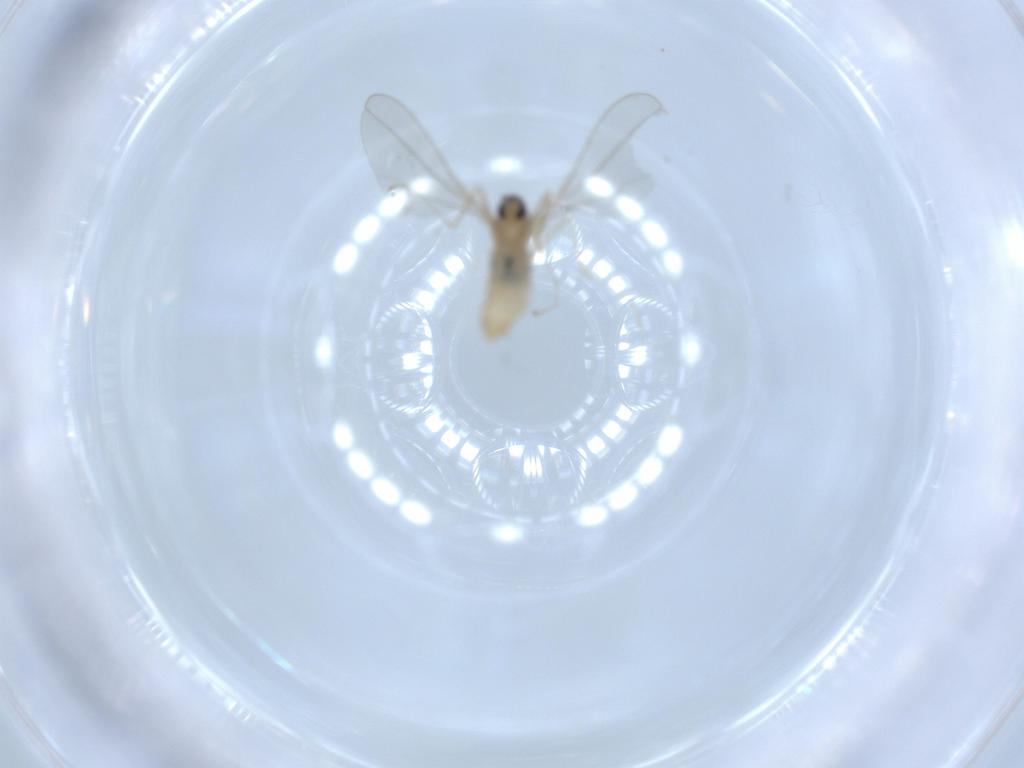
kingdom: Animalia
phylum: Arthropoda
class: Insecta
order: Diptera
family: Cecidomyiidae
